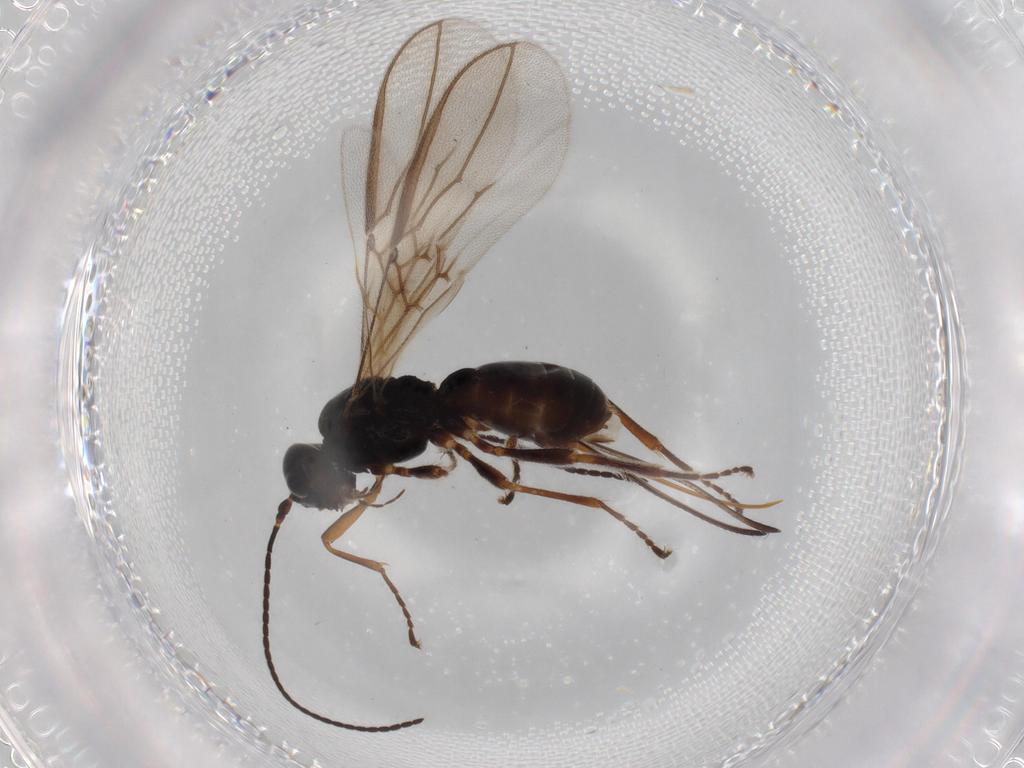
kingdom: Animalia
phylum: Arthropoda
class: Insecta
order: Hymenoptera
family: Braconidae
